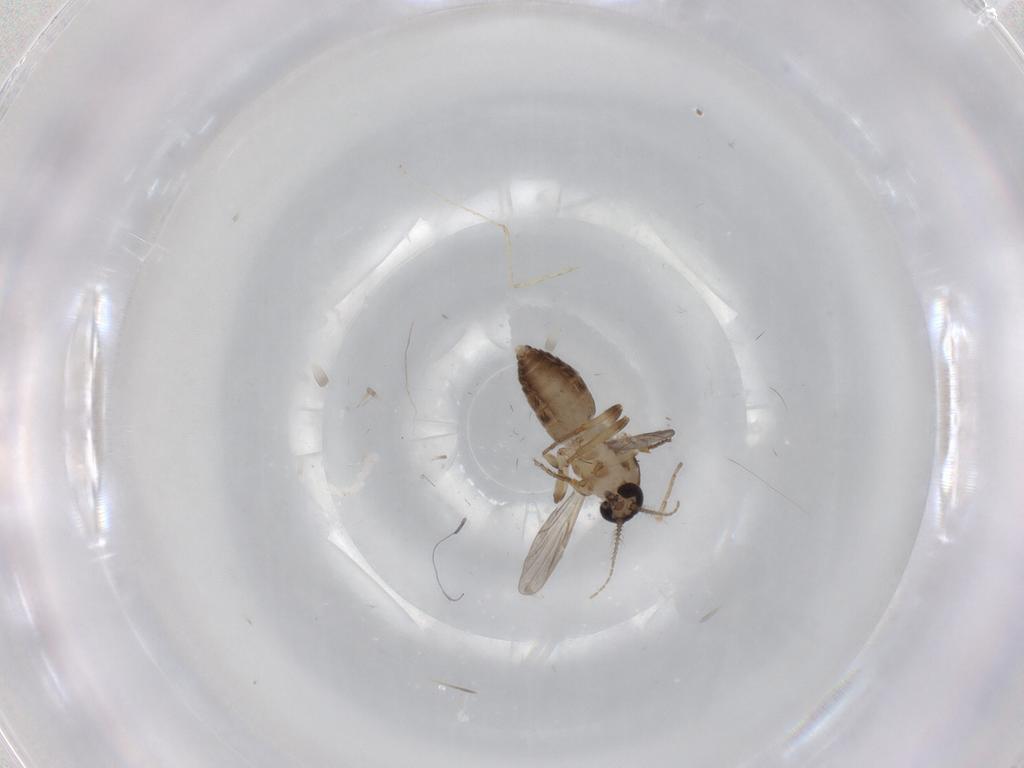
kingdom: Animalia
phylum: Arthropoda
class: Insecta
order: Diptera
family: Ceratopogonidae
